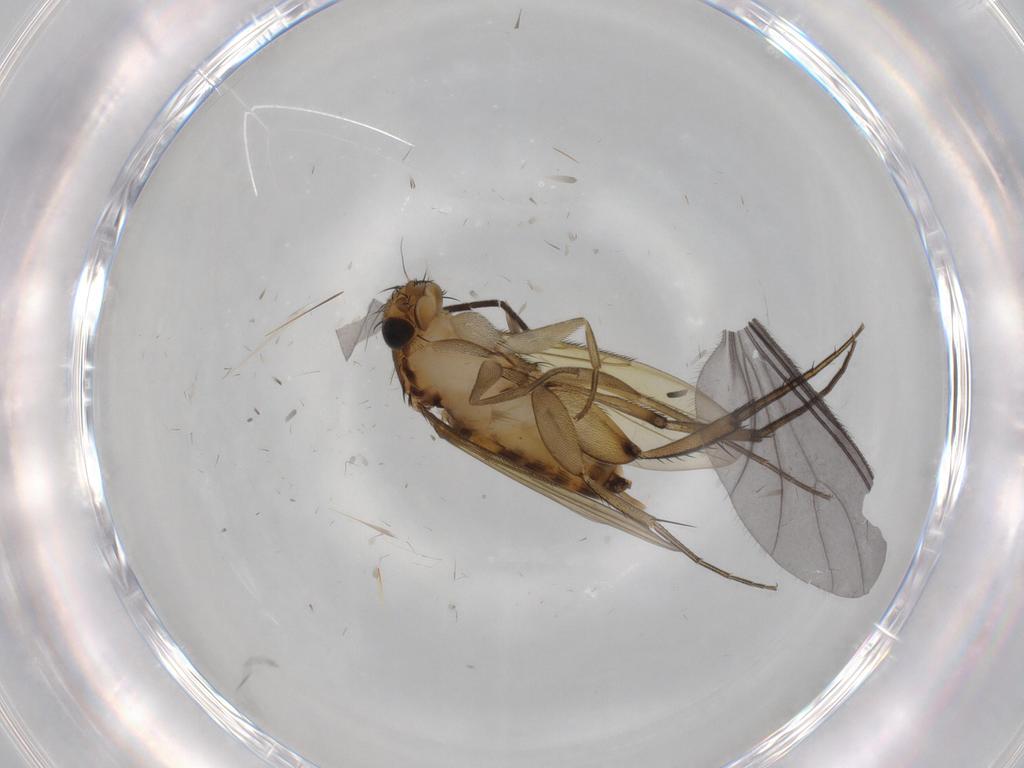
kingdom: Animalia
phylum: Arthropoda
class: Insecta
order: Diptera
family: Phoridae
